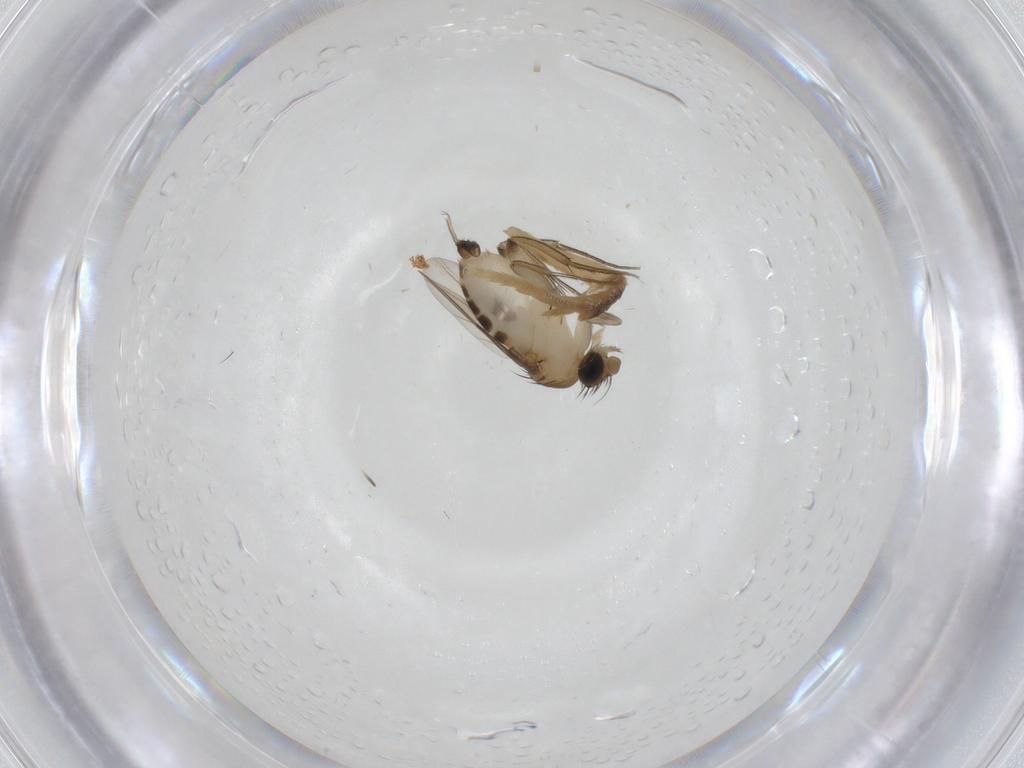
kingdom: Animalia
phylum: Arthropoda
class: Insecta
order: Diptera
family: Phoridae
